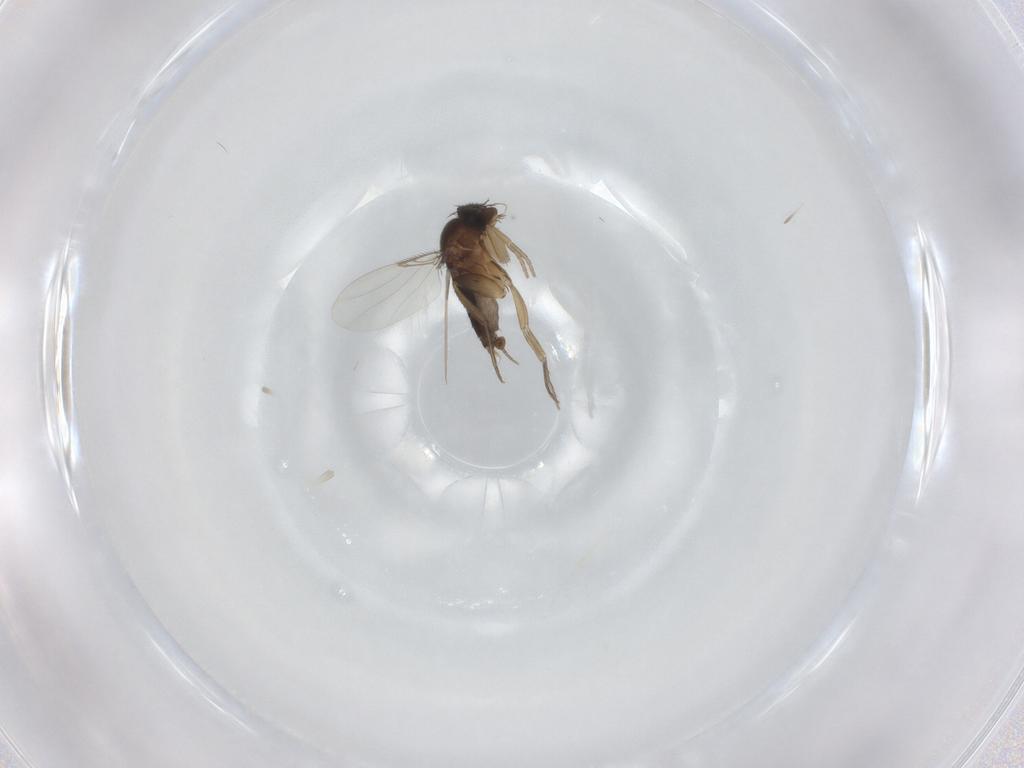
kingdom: Animalia
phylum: Arthropoda
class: Insecta
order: Diptera
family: Phoridae
